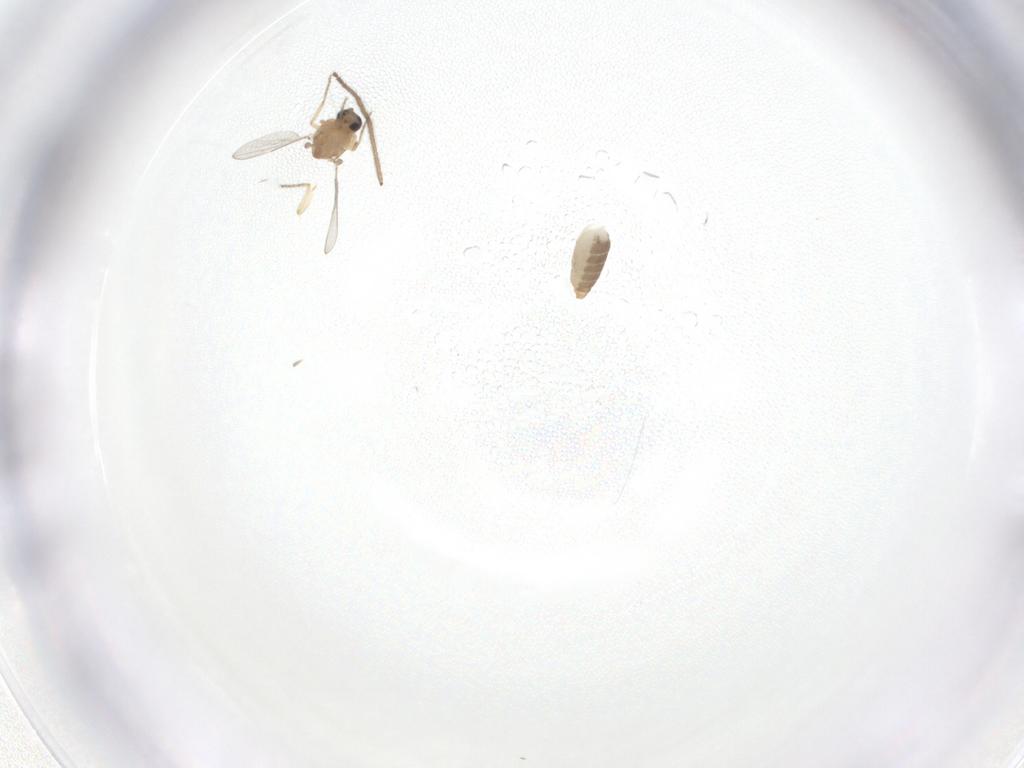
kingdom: Animalia
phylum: Arthropoda
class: Insecta
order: Diptera
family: Ceratopogonidae
